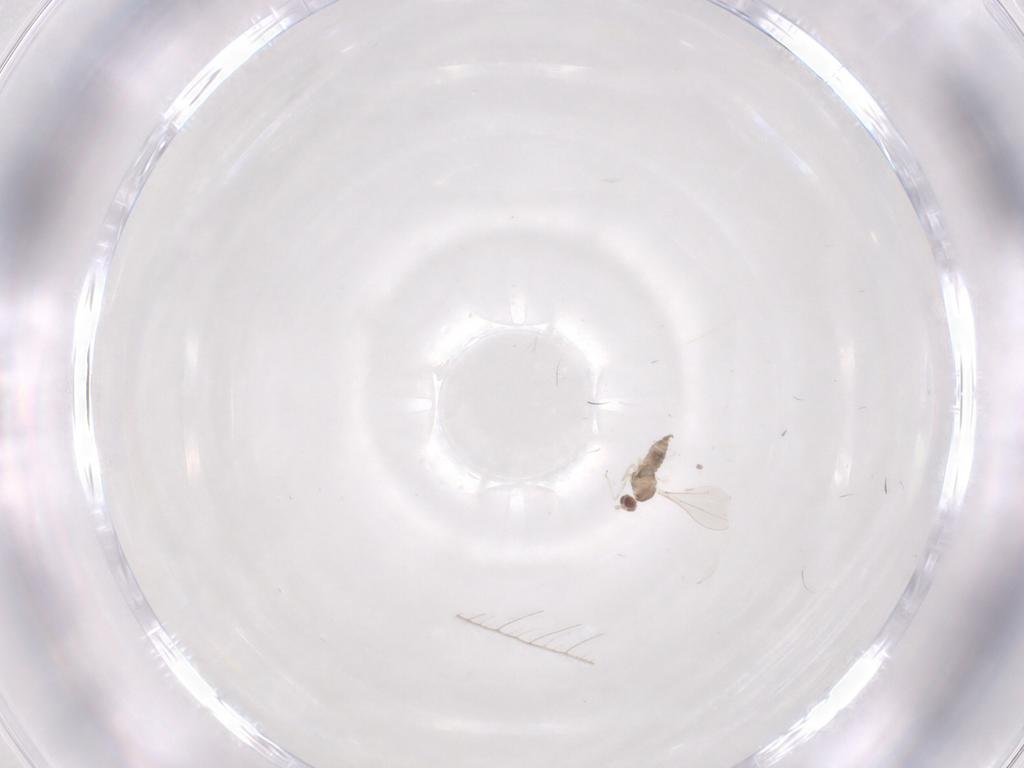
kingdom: Animalia
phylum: Arthropoda
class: Insecta
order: Diptera
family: Cecidomyiidae
